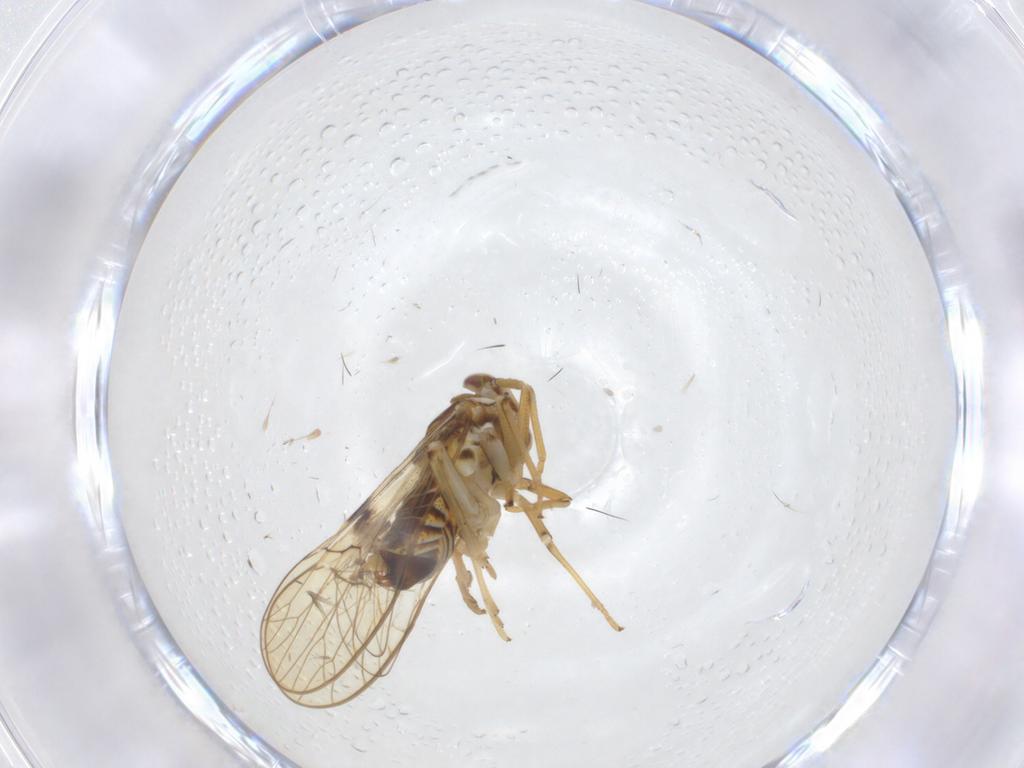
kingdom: Animalia
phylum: Arthropoda
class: Insecta
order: Hemiptera
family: Delphacidae
